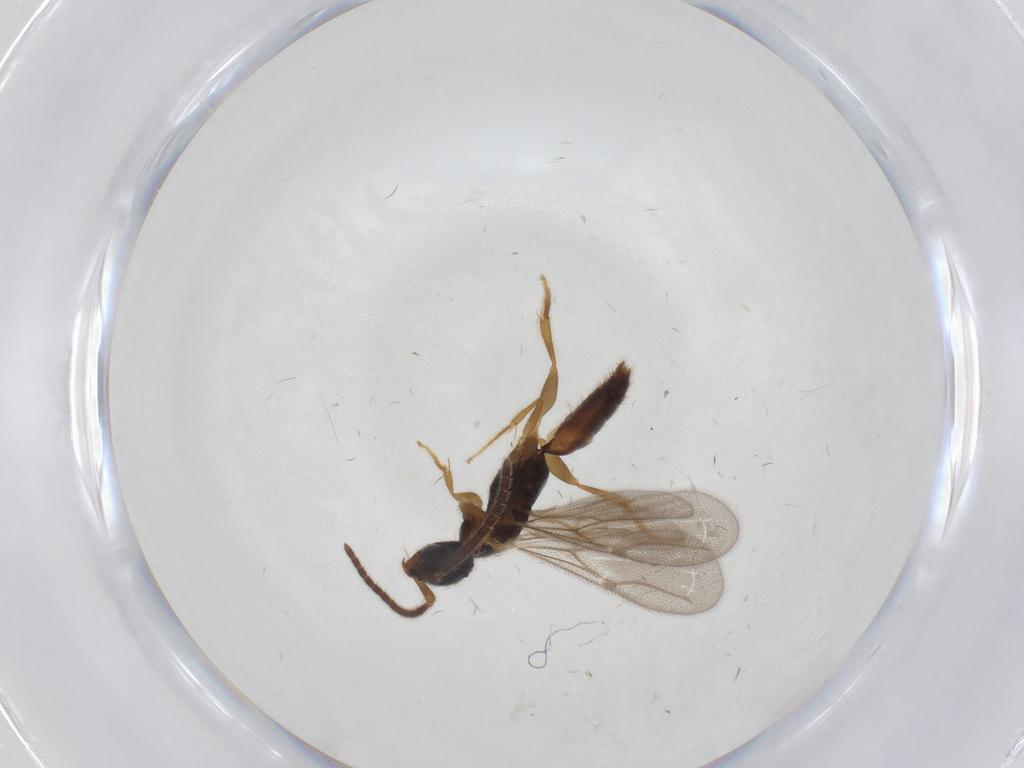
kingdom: Animalia
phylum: Arthropoda
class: Insecta
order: Hymenoptera
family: Bethylidae
